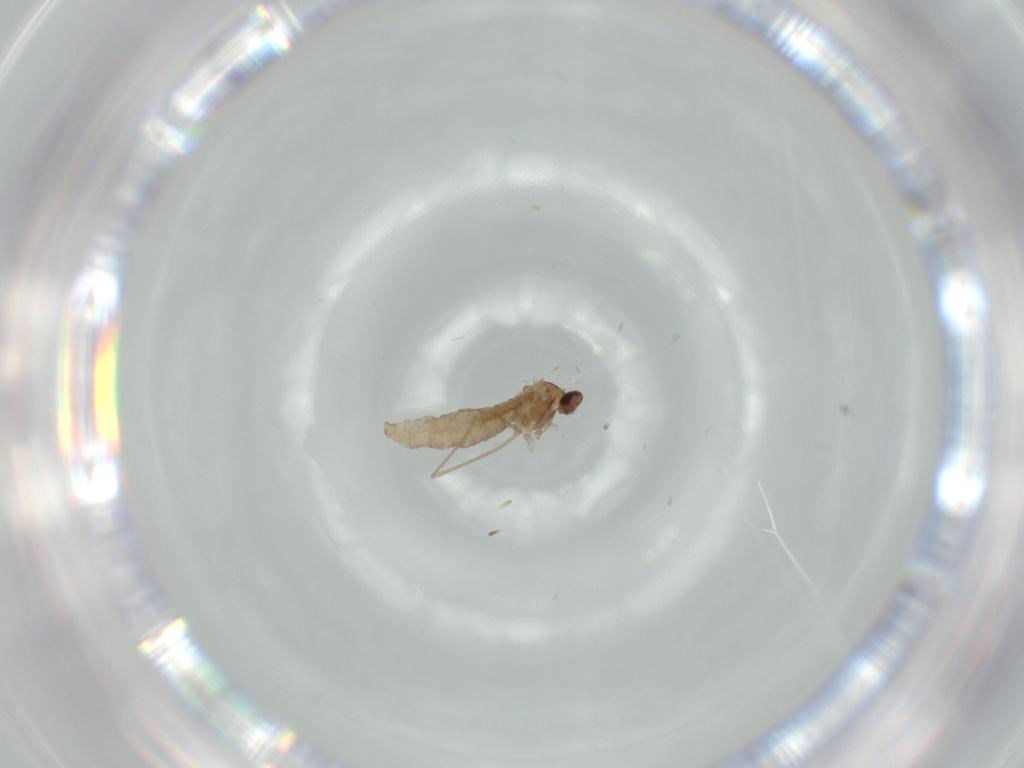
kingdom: Animalia
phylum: Arthropoda
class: Insecta
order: Diptera
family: Cecidomyiidae
